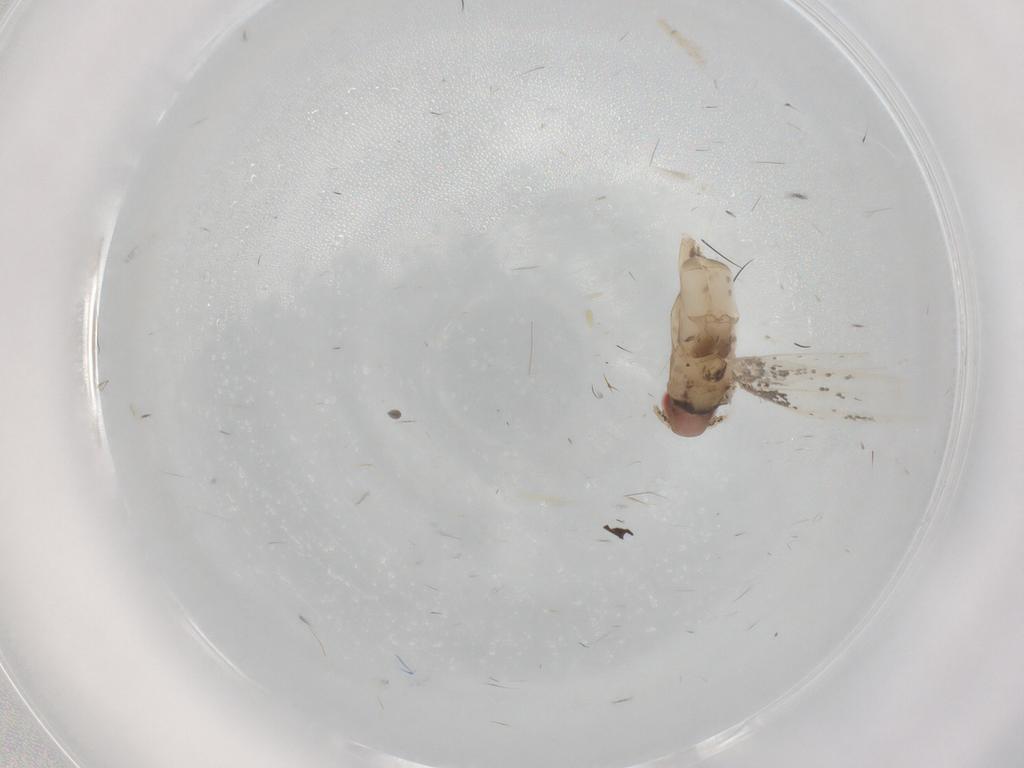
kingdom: Animalia
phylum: Arthropoda
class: Insecta
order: Lepidoptera
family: Gracillariidae
